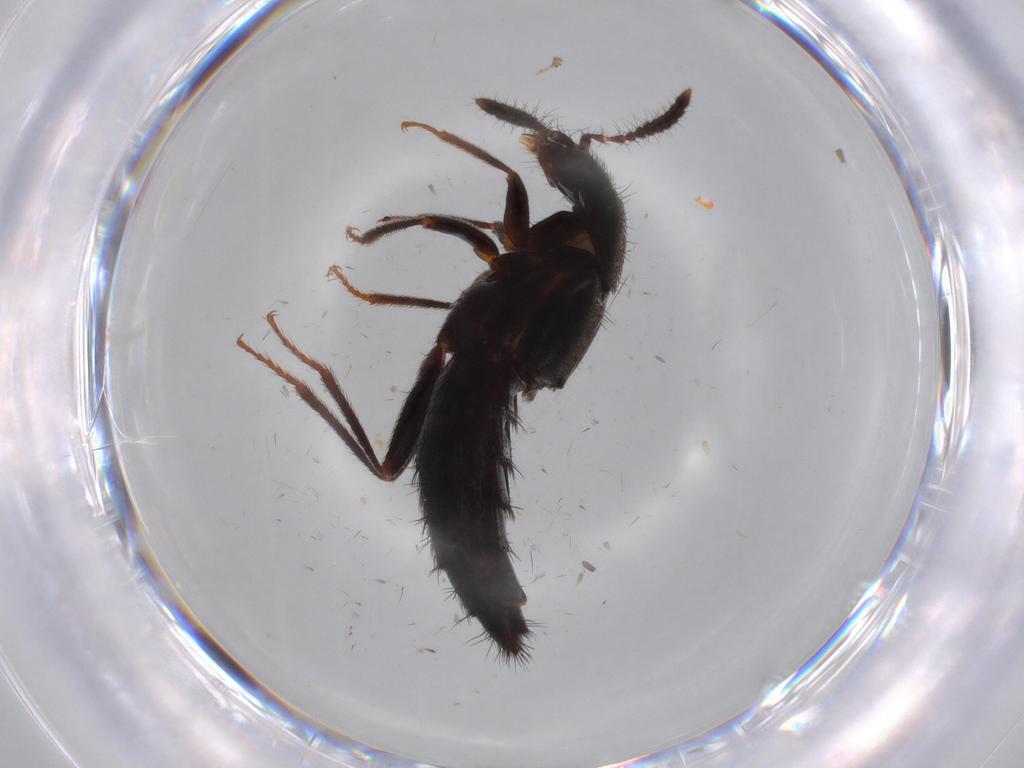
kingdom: Animalia
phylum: Arthropoda
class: Insecta
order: Coleoptera
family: Staphylinidae
